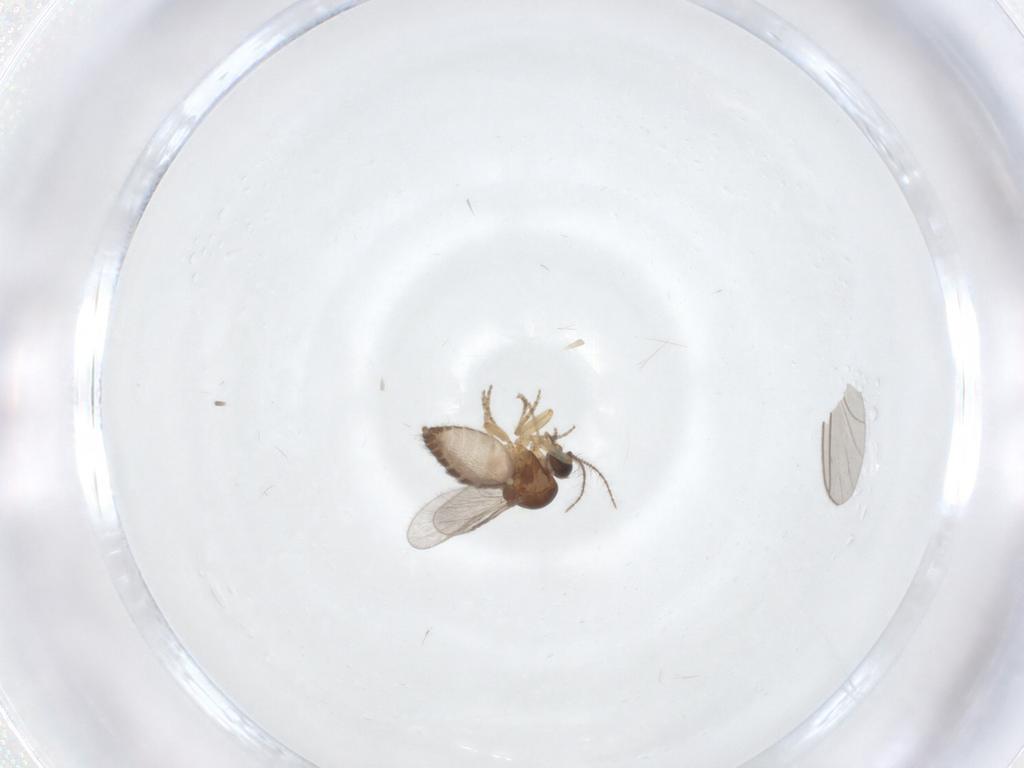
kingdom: Animalia
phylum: Arthropoda
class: Insecta
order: Diptera
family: Ceratopogonidae
